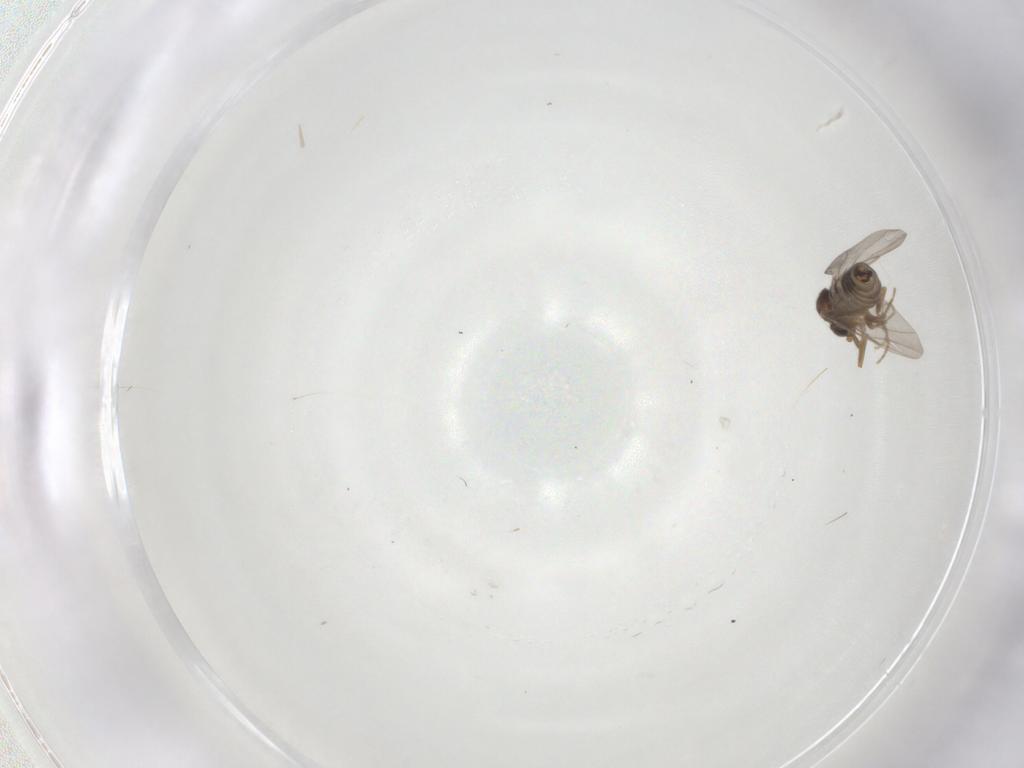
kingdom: Animalia
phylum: Arthropoda
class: Insecta
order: Diptera
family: Phoridae
